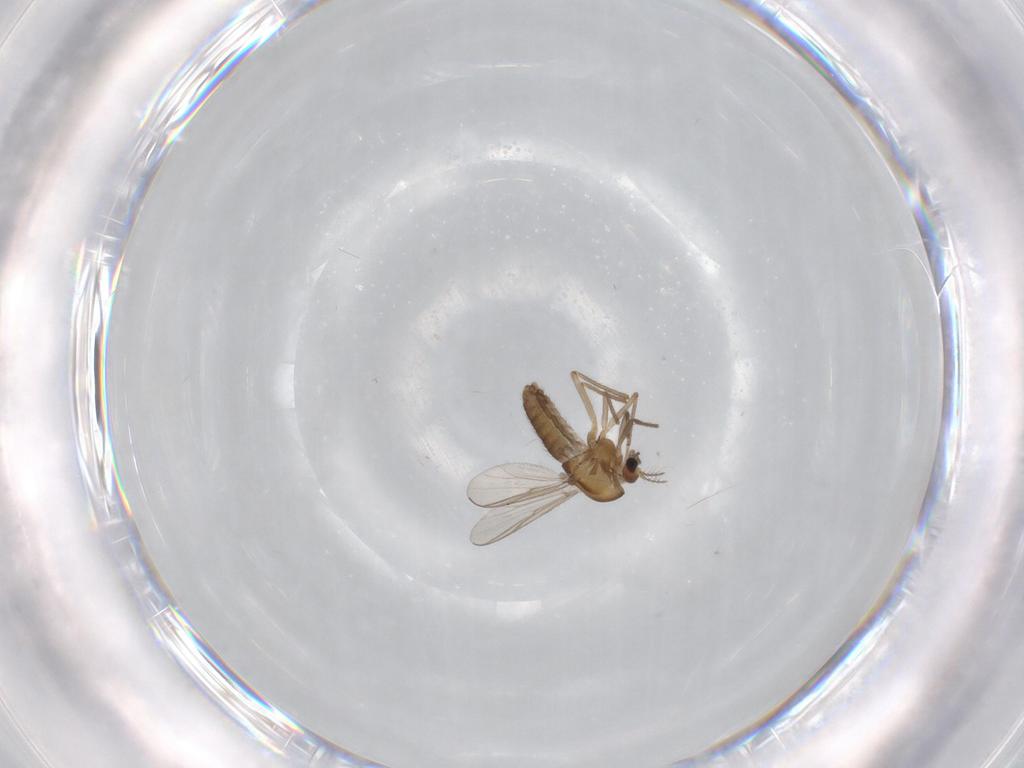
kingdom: Animalia
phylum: Arthropoda
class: Insecta
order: Diptera
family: Chironomidae
